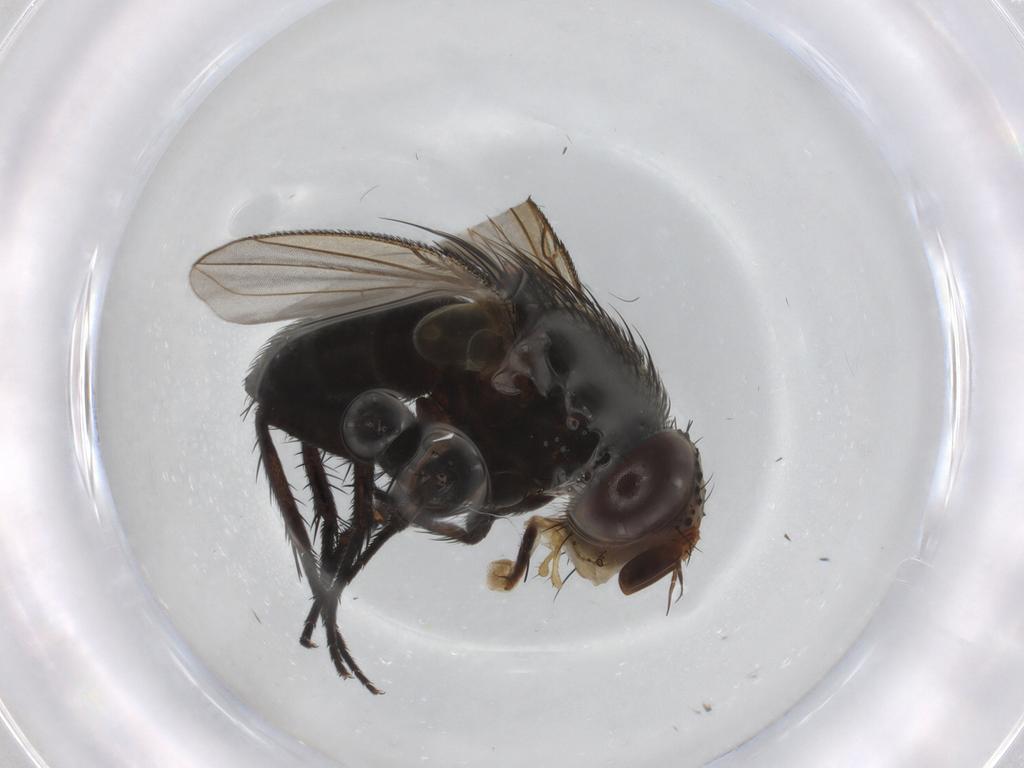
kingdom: Animalia
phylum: Arthropoda
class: Insecta
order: Diptera
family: Tachinidae
